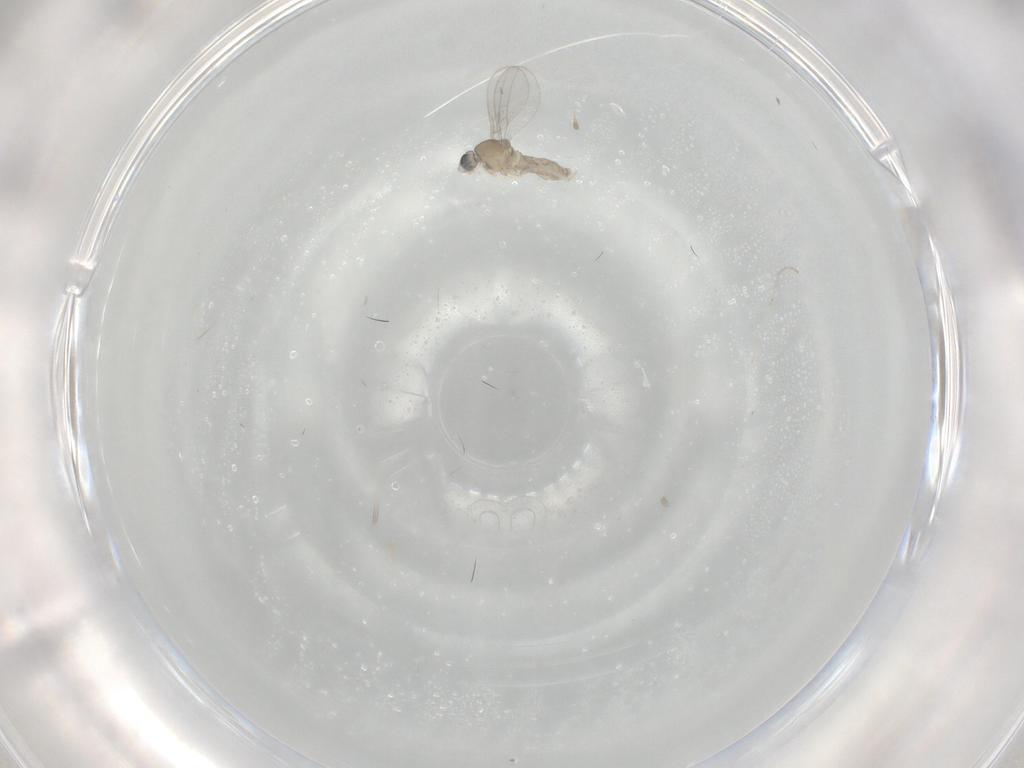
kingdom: Animalia
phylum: Arthropoda
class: Insecta
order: Diptera
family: Cecidomyiidae
